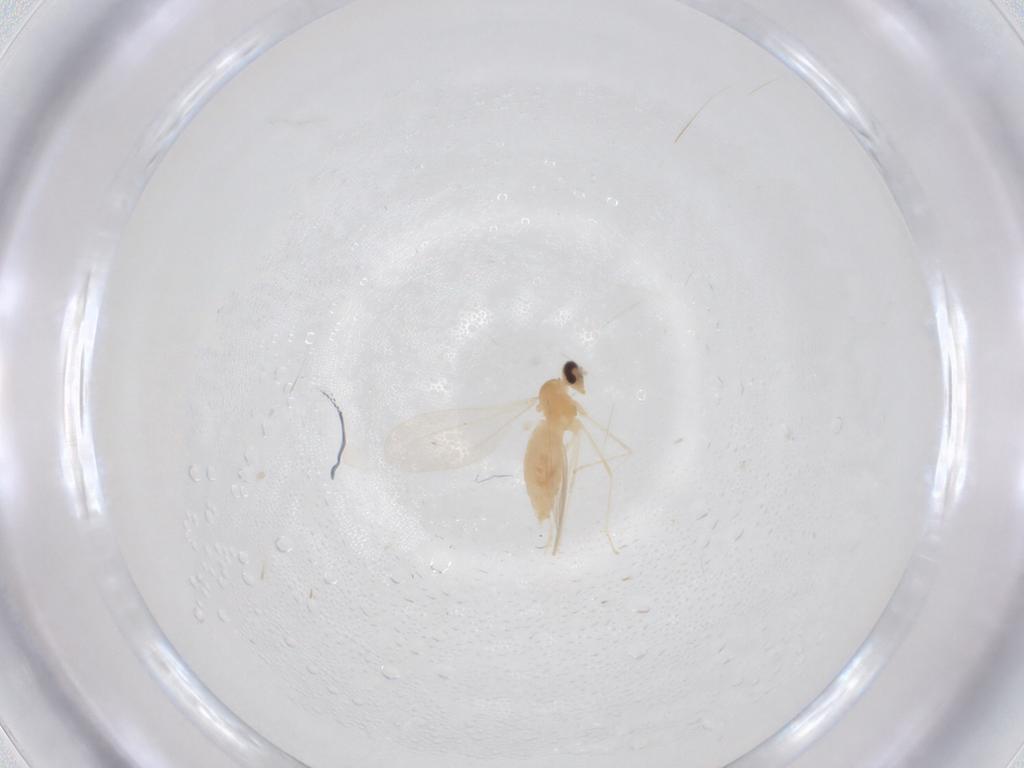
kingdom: Animalia
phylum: Arthropoda
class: Insecta
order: Diptera
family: Cecidomyiidae
